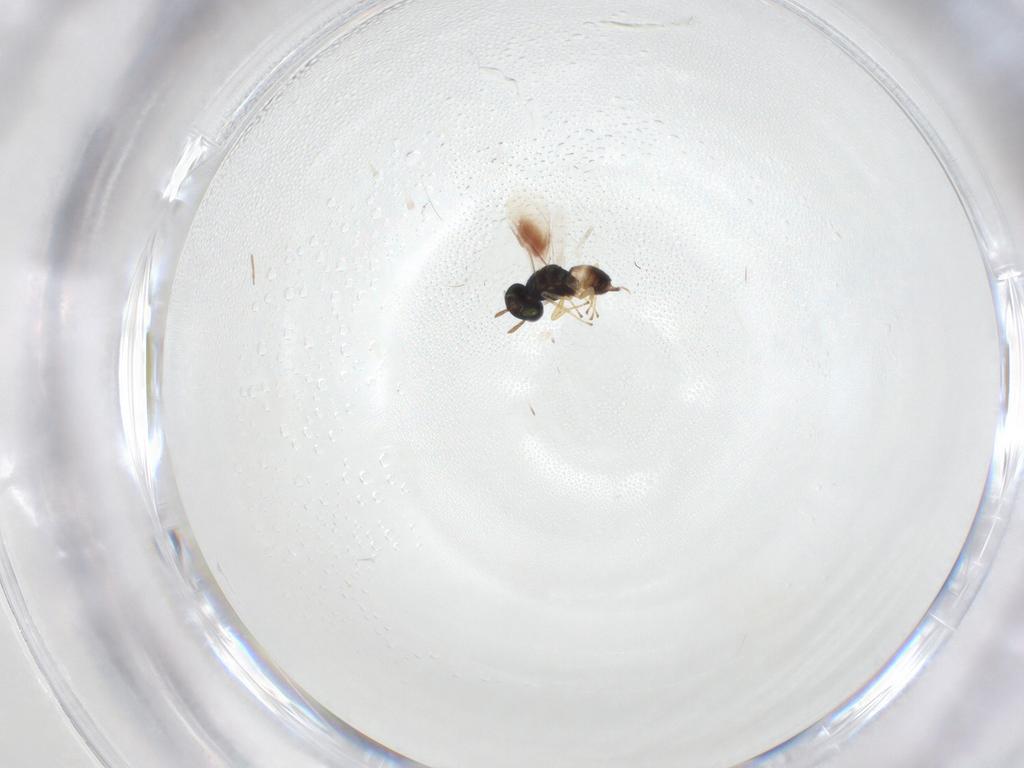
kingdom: Animalia
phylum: Arthropoda
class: Insecta
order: Hymenoptera
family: Pteromalidae
